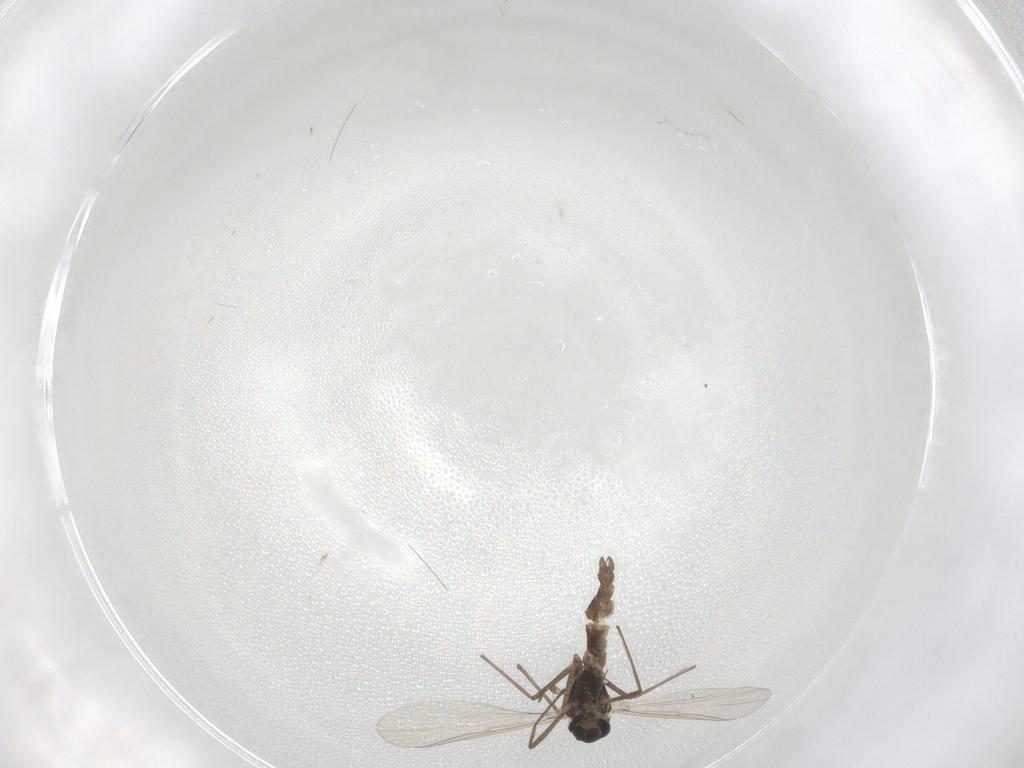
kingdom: Animalia
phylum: Arthropoda
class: Insecta
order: Diptera
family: Chironomidae
